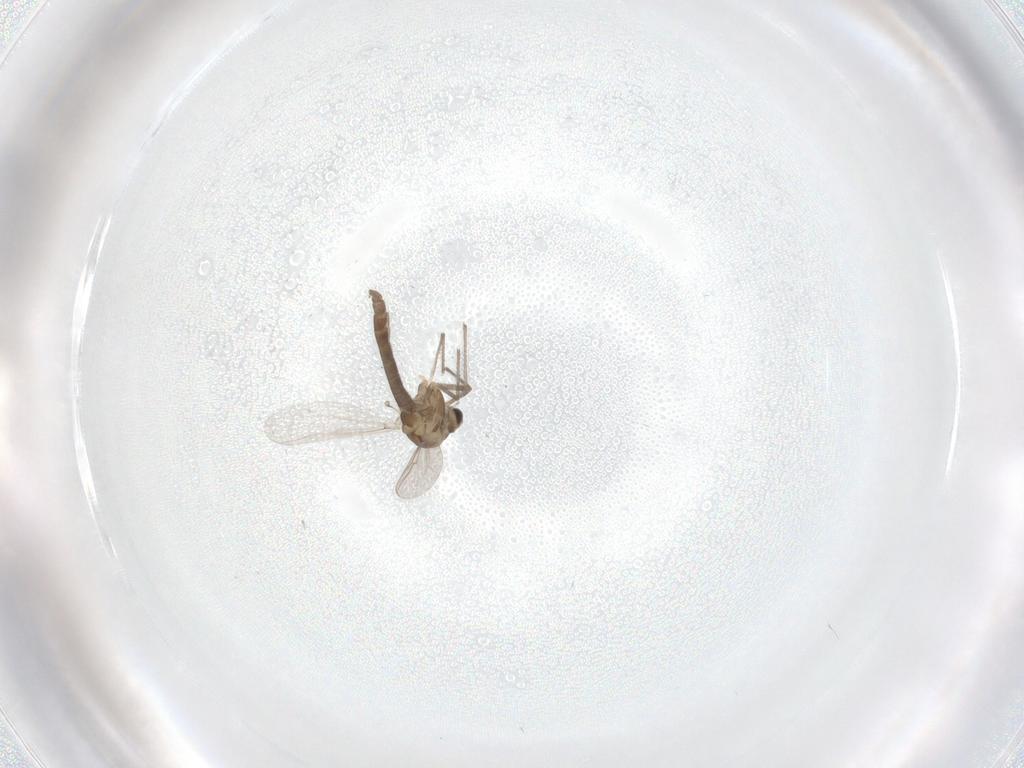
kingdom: Animalia
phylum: Arthropoda
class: Insecta
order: Diptera
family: Chironomidae
